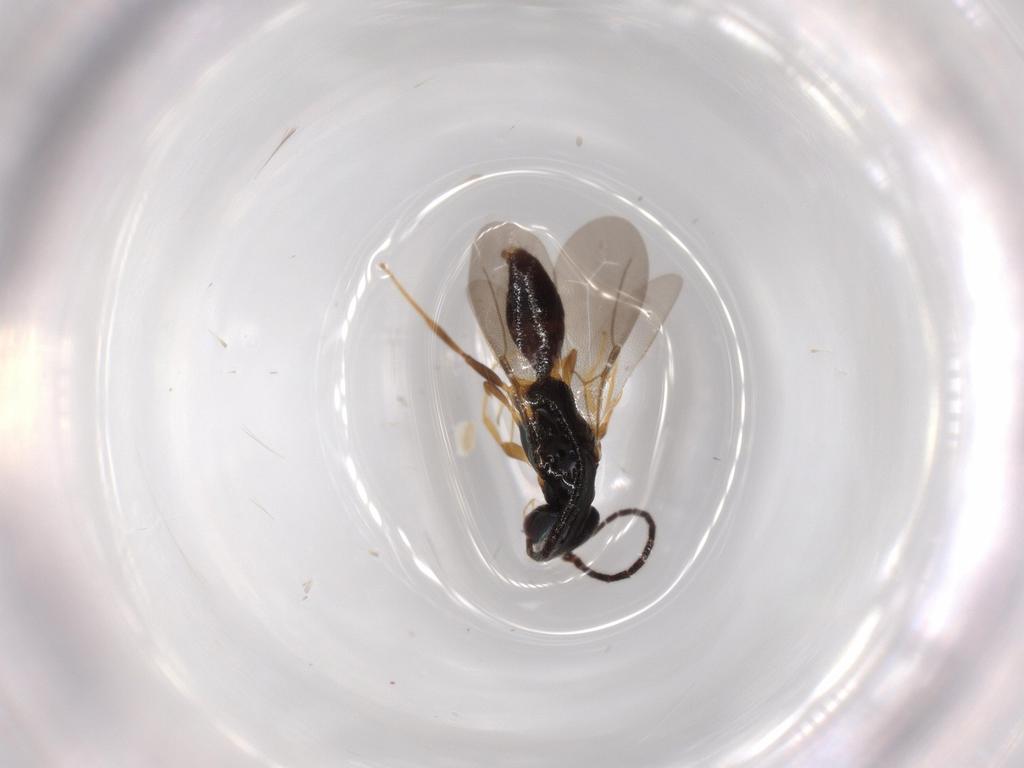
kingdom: Animalia
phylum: Arthropoda
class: Insecta
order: Hymenoptera
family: Bethylidae
